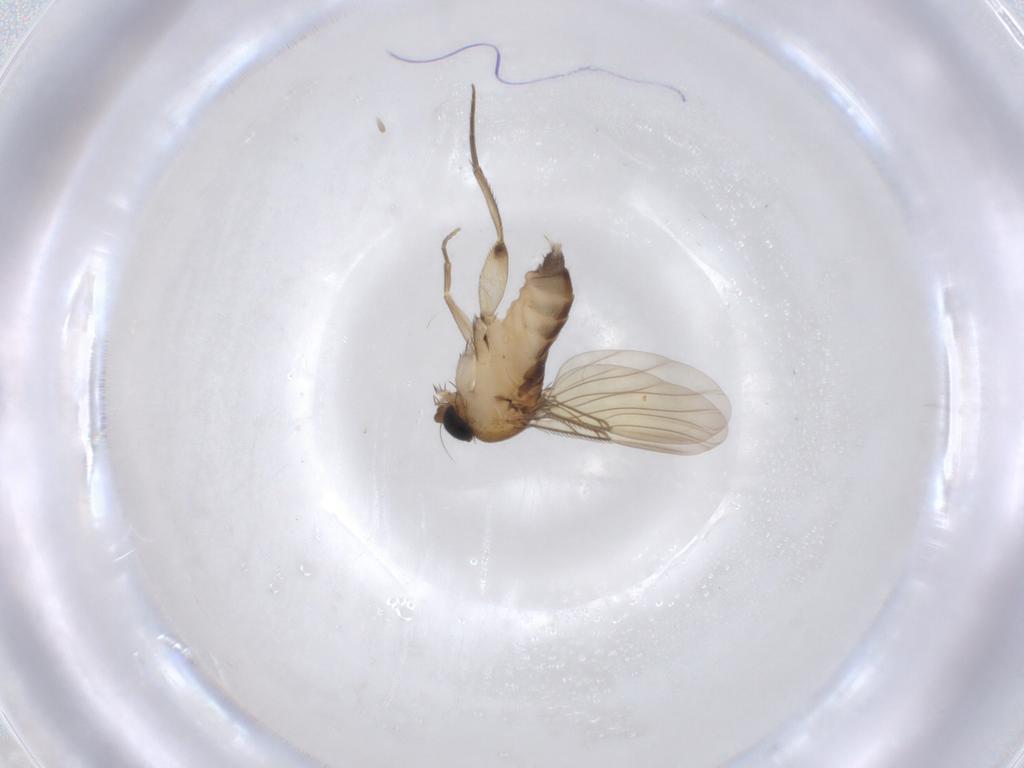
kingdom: Animalia
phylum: Arthropoda
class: Insecta
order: Diptera
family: Phoridae
